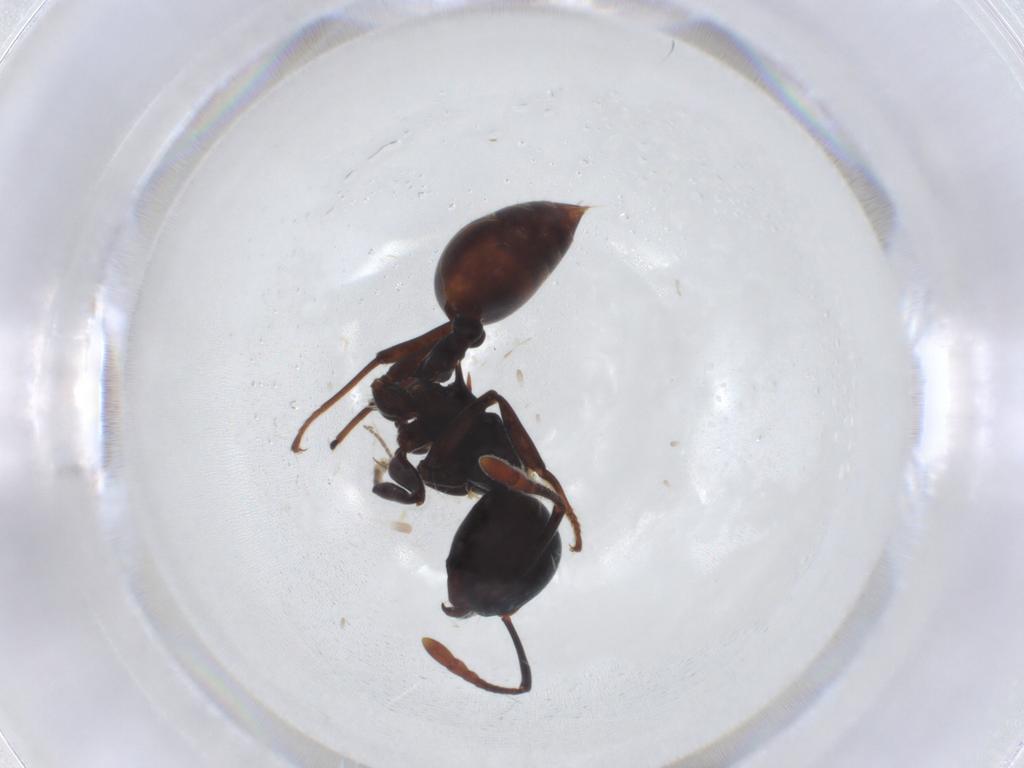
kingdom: Animalia
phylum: Arthropoda
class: Insecta
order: Hymenoptera
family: Formicidae
